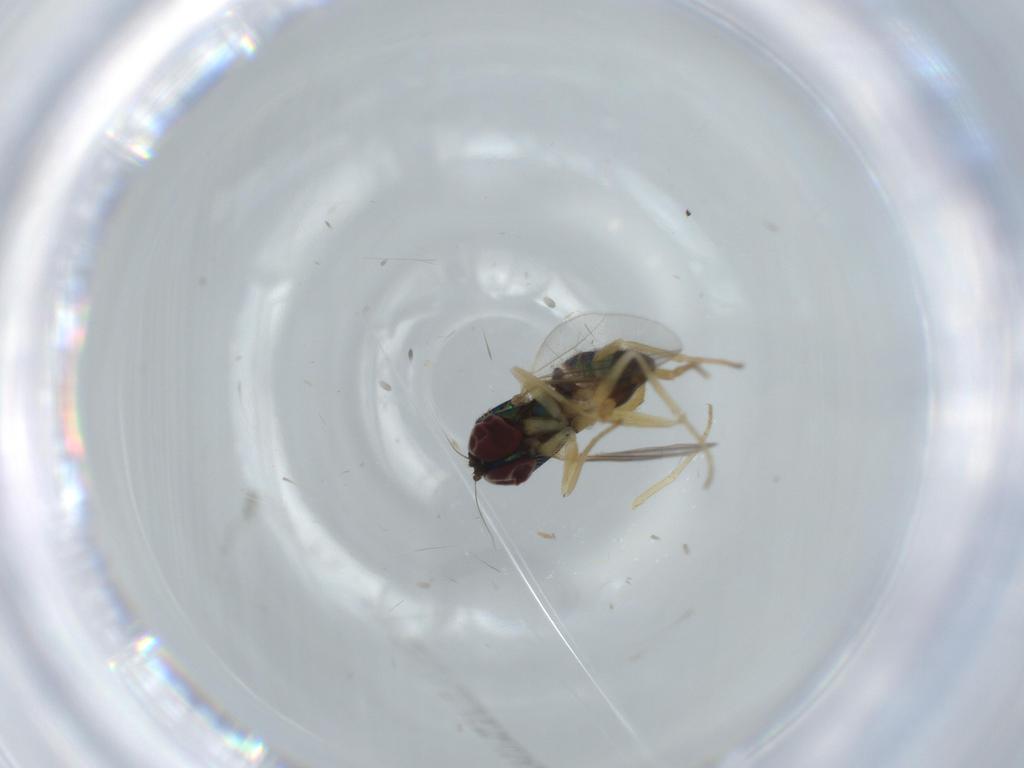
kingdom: Animalia
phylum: Arthropoda
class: Insecta
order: Diptera
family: Dolichopodidae
